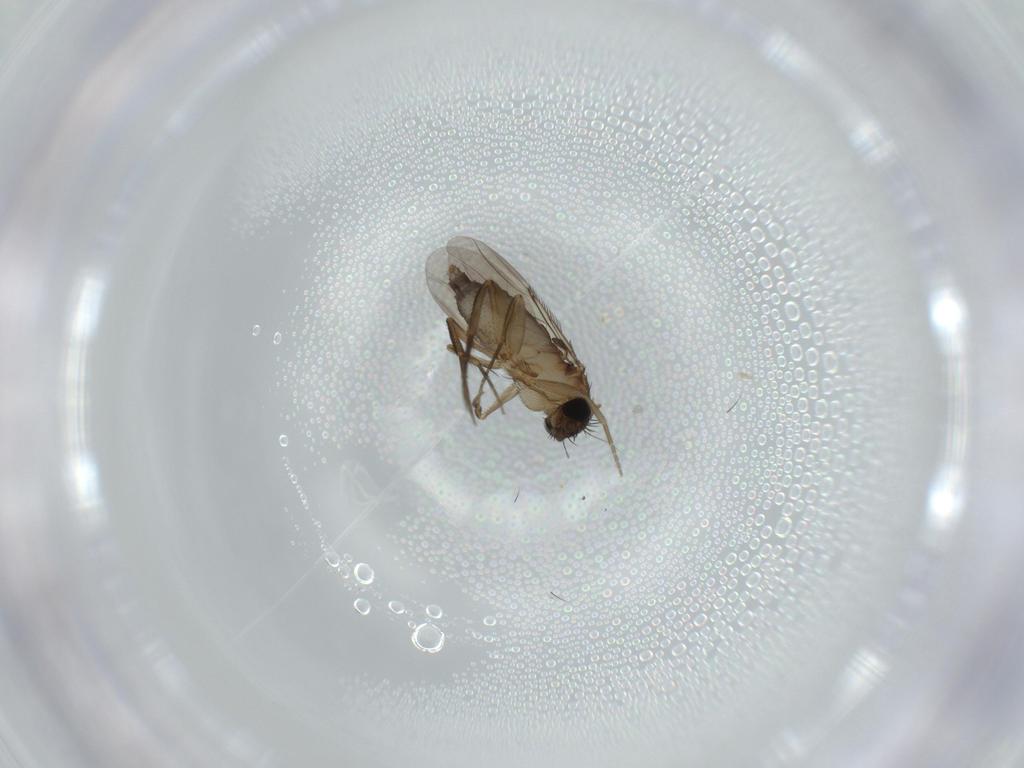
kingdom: Animalia
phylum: Arthropoda
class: Insecta
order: Diptera
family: Phoridae
